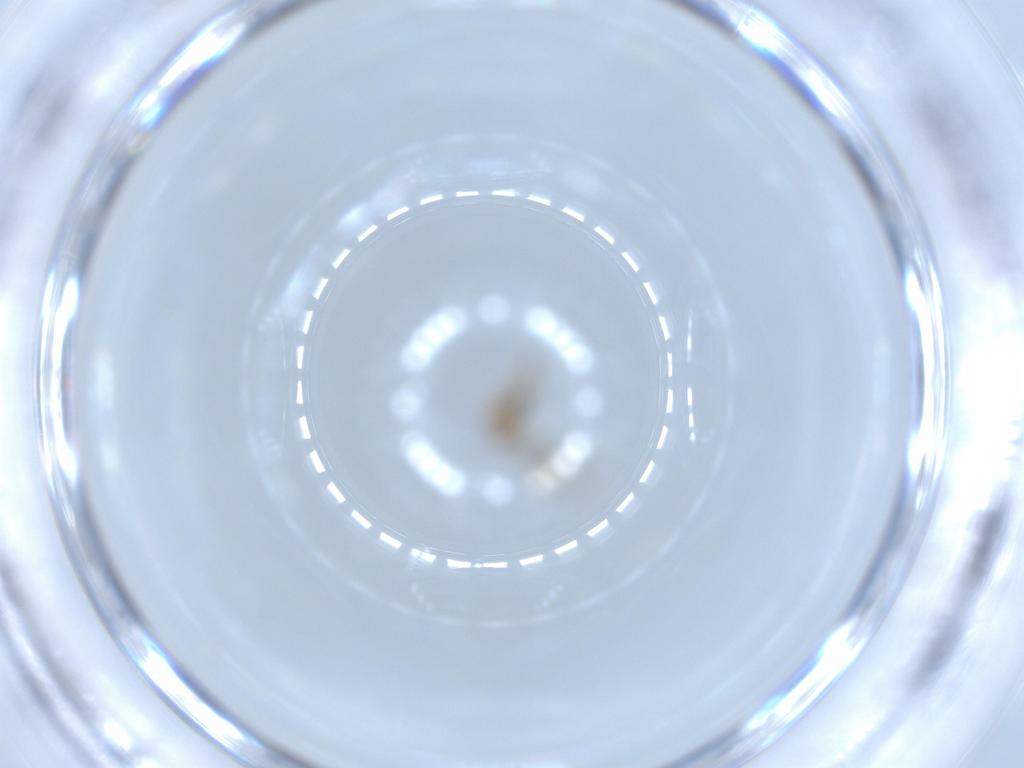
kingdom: Animalia
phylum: Arthropoda
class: Insecta
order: Diptera
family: Cecidomyiidae
